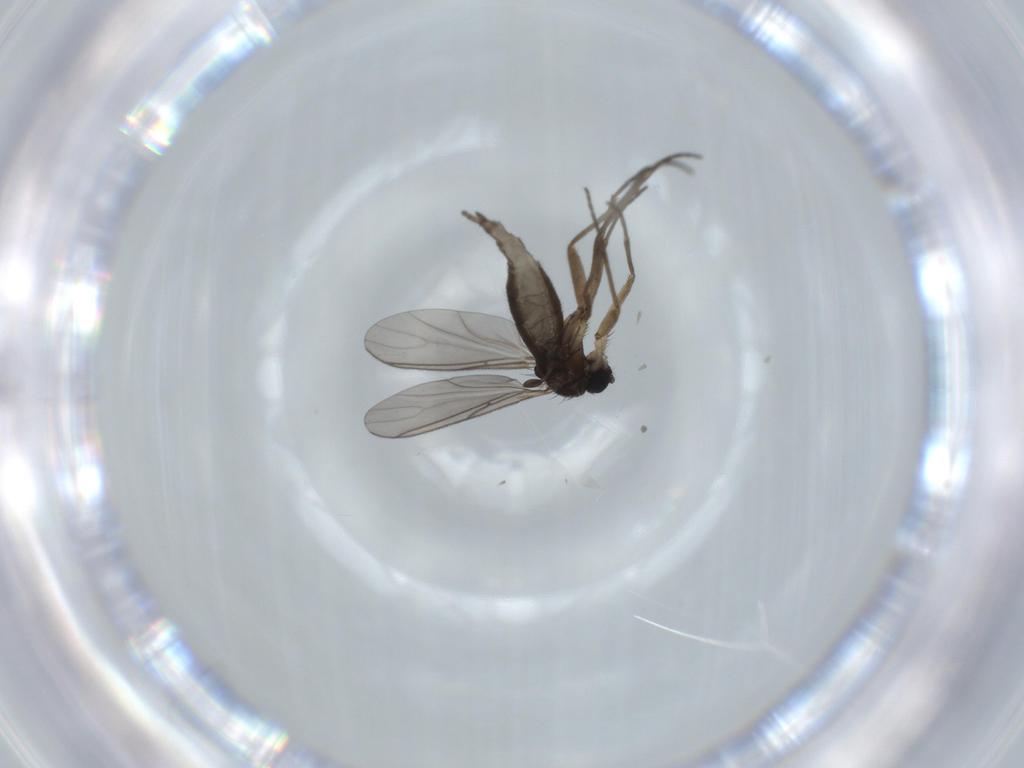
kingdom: Animalia
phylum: Arthropoda
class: Insecta
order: Diptera
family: Sciaridae
